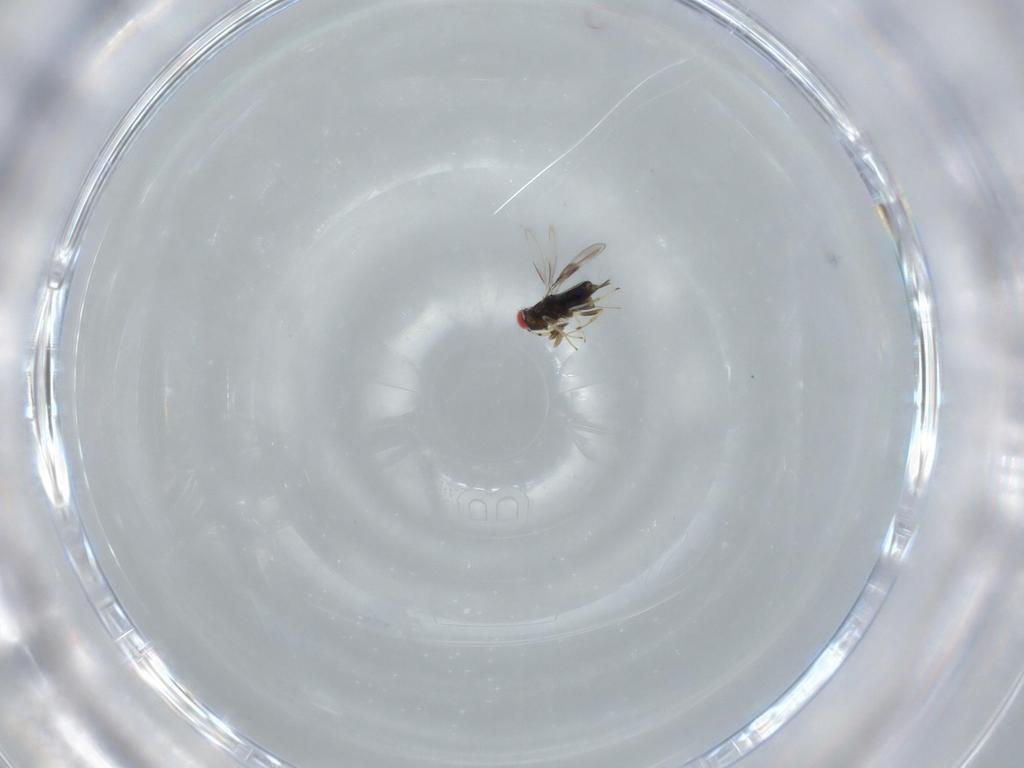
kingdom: Animalia
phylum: Arthropoda
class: Insecta
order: Hymenoptera
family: Azotidae
